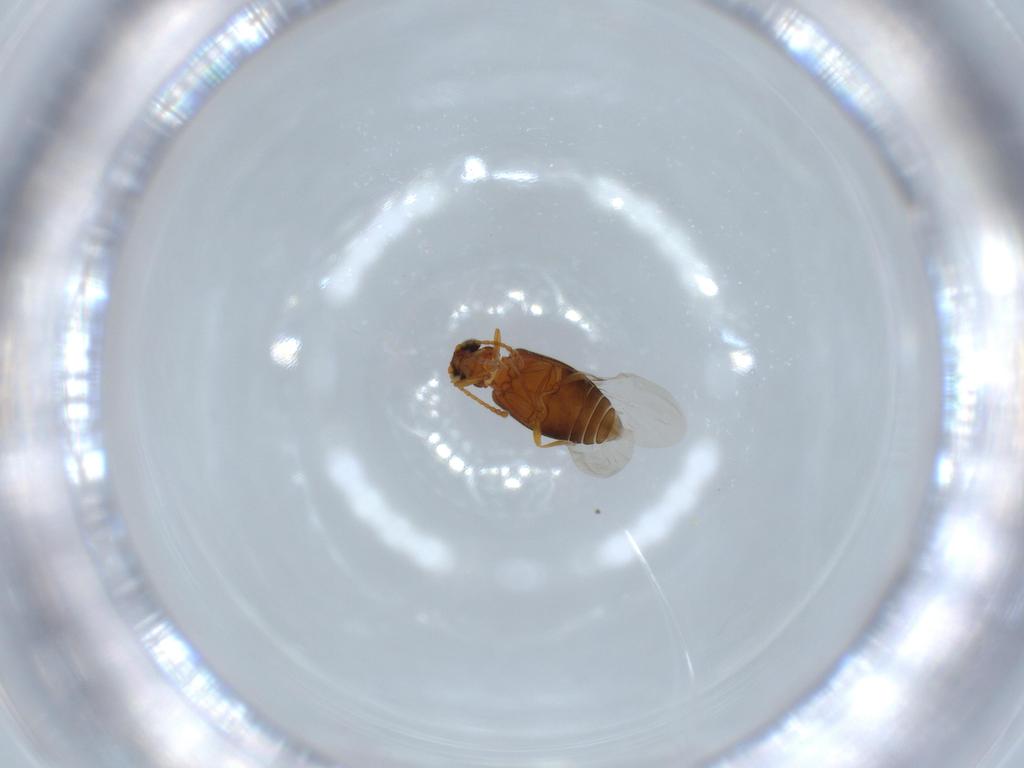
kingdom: Animalia
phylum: Arthropoda
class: Insecta
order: Coleoptera
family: Aderidae
